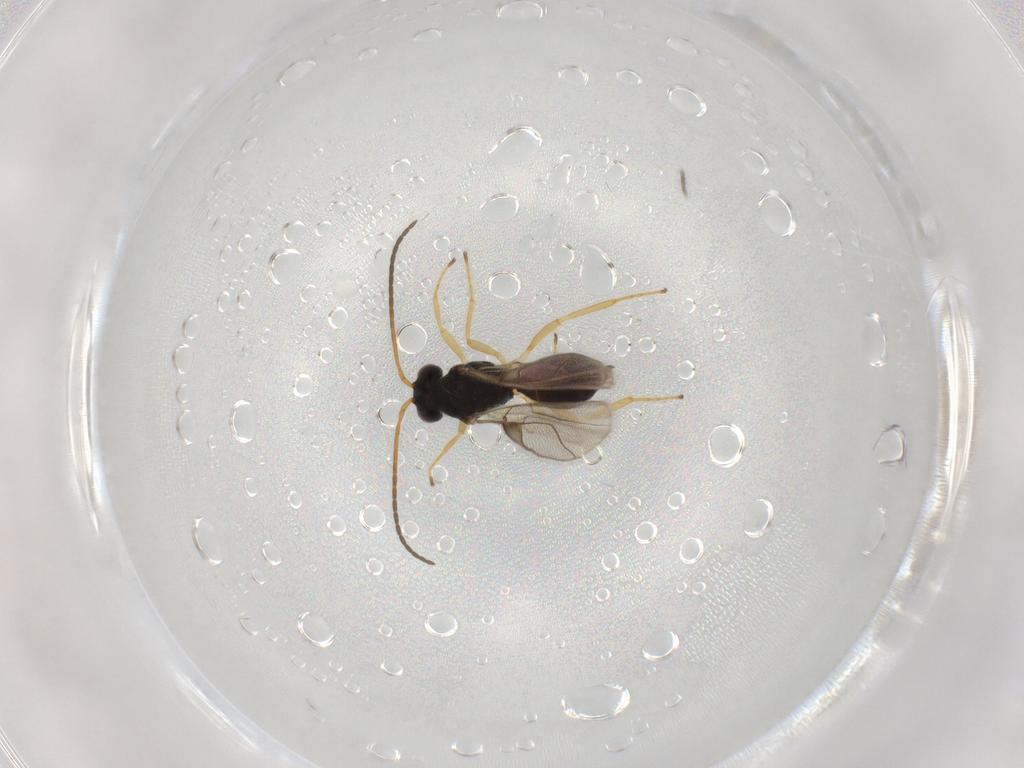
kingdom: Animalia
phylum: Arthropoda
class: Insecta
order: Hymenoptera
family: Braconidae
